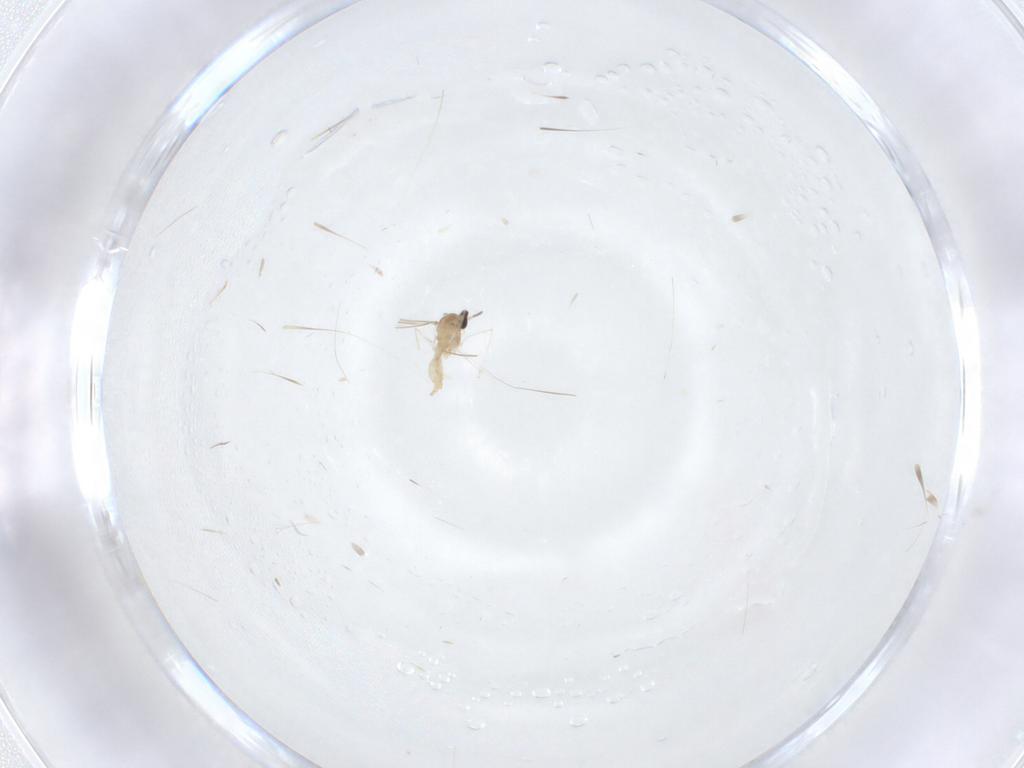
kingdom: Animalia
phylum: Arthropoda
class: Insecta
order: Diptera
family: Cecidomyiidae
